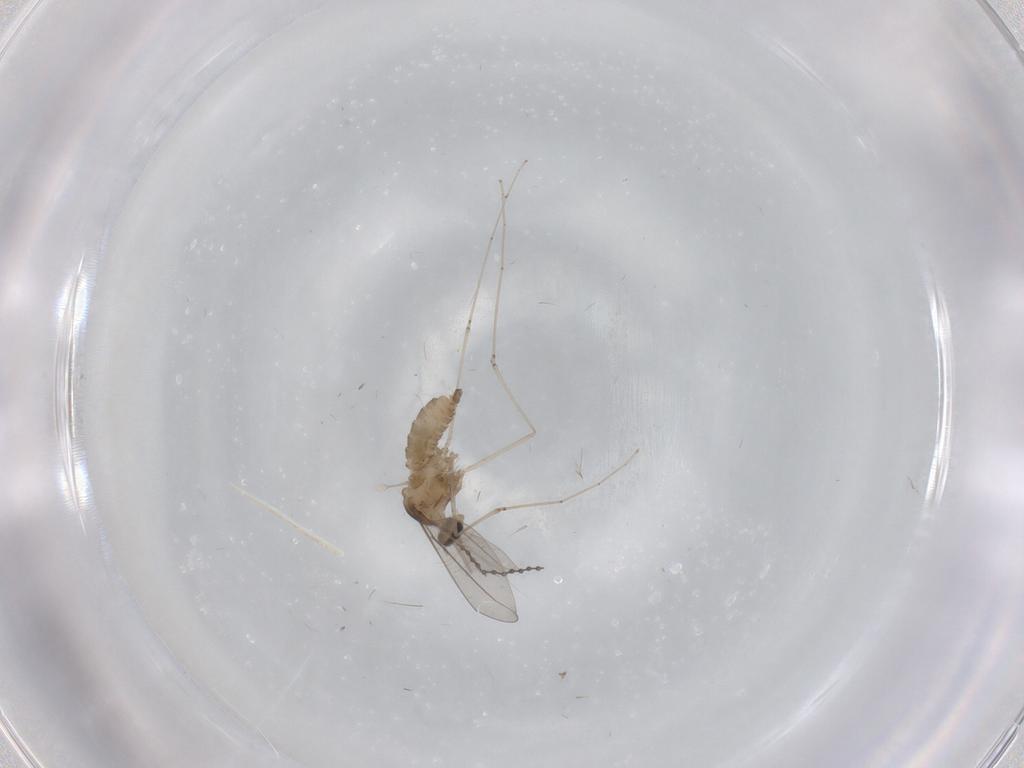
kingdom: Animalia
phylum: Arthropoda
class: Insecta
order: Diptera
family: Cecidomyiidae
